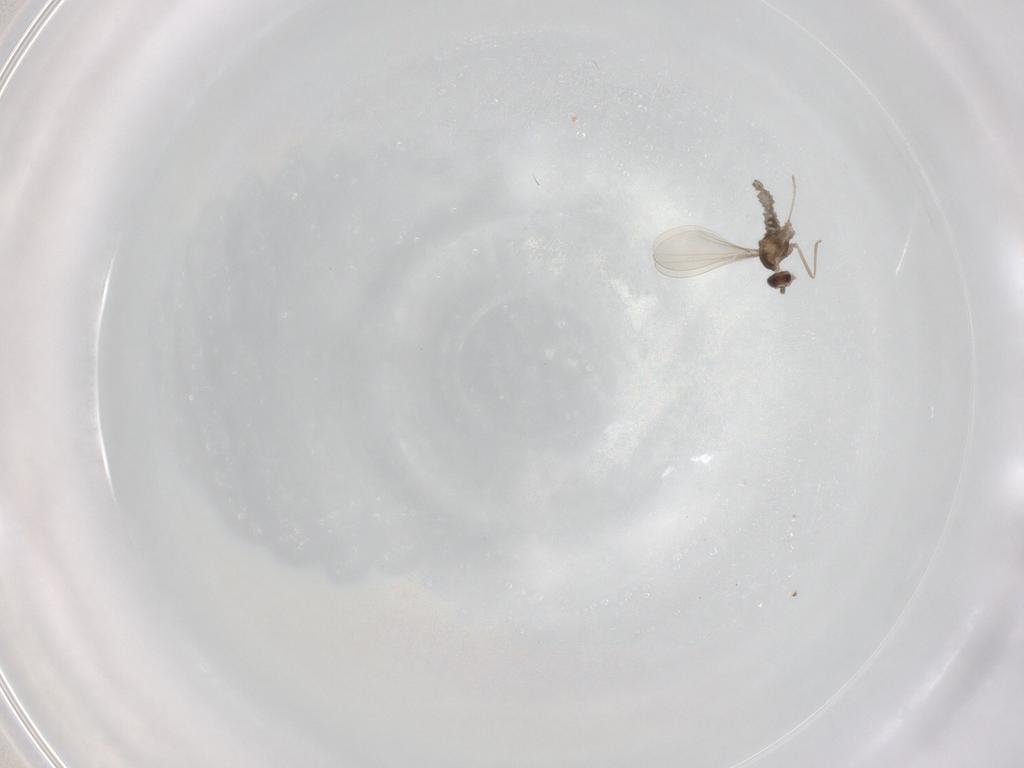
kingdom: Animalia
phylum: Arthropoda
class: Insecta
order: Diptera
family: Cecidomyiidae
